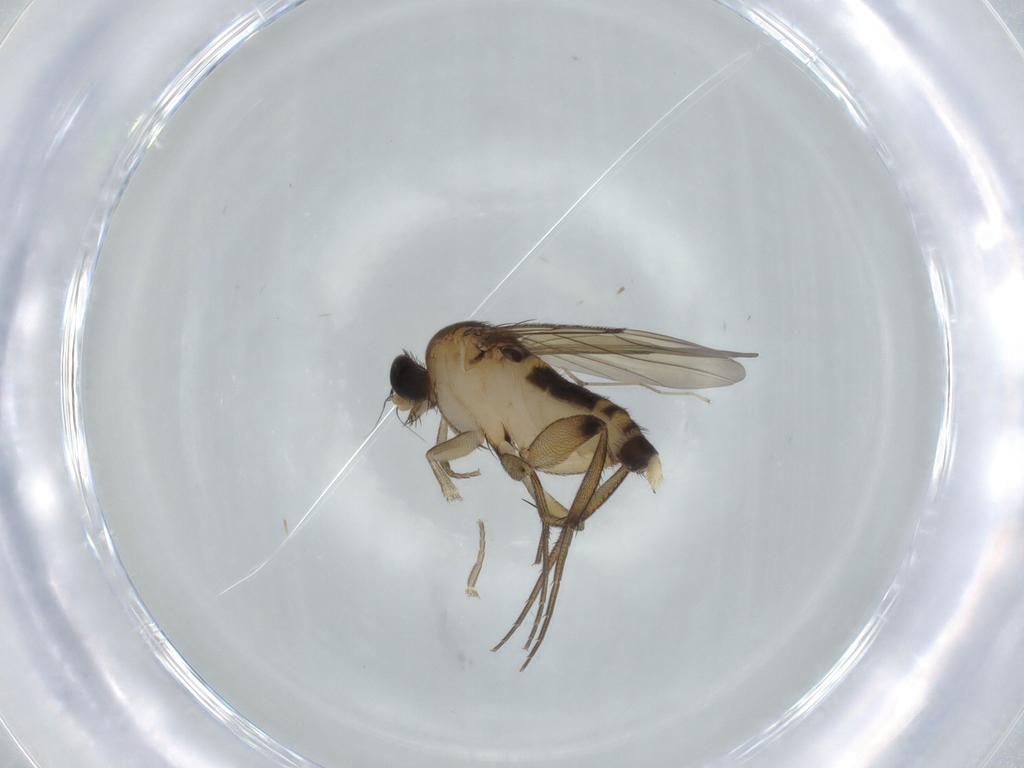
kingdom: Animalia
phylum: Arthropoda
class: Insecta
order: Diptera
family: Phoridae
